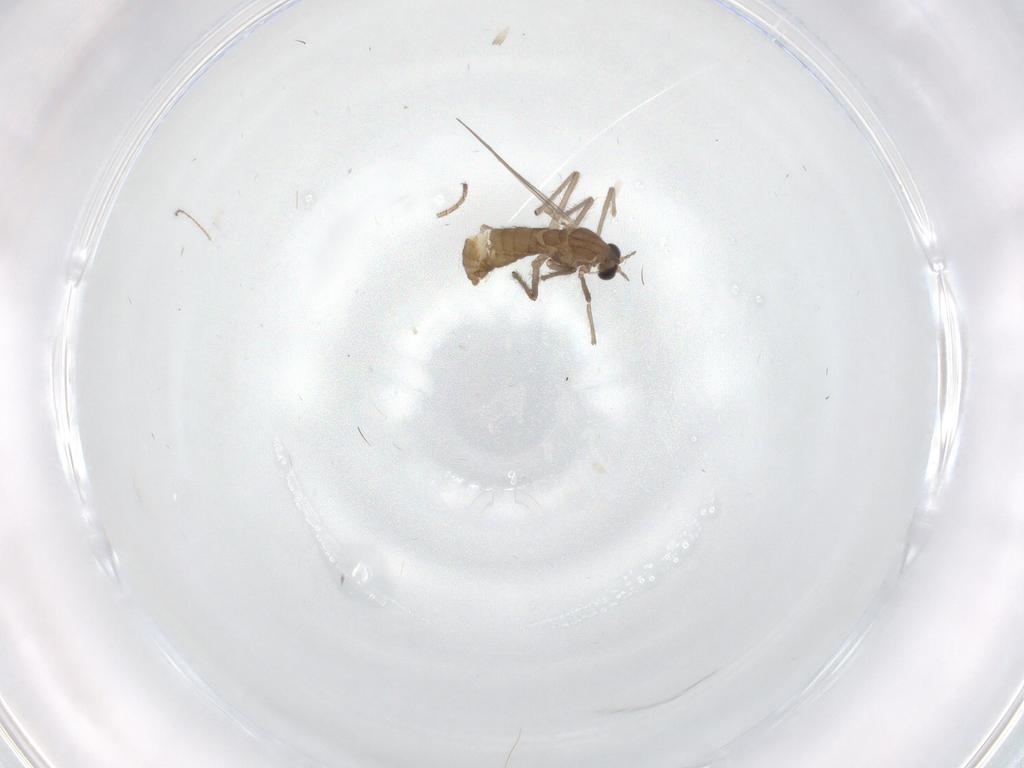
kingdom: Animalia
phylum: Arthropoda
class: Insecta
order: Diptera
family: Chironomidae
